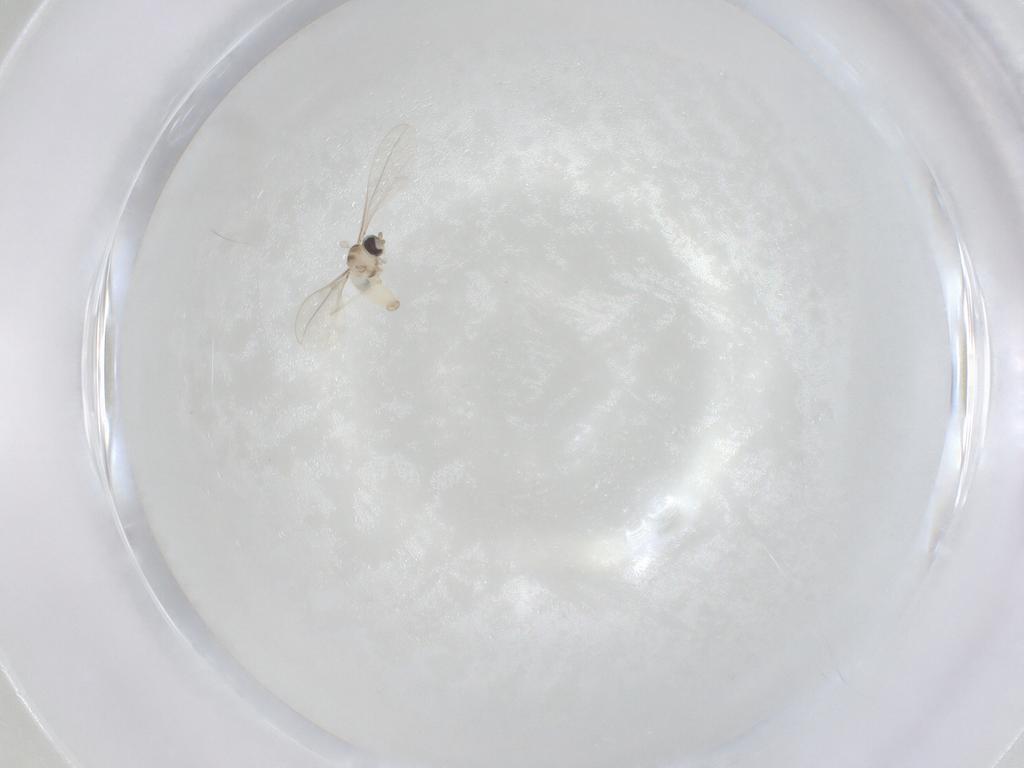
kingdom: Animalia
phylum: Arthropoda
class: Insecta
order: Diptera
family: Cecidomyiidae
